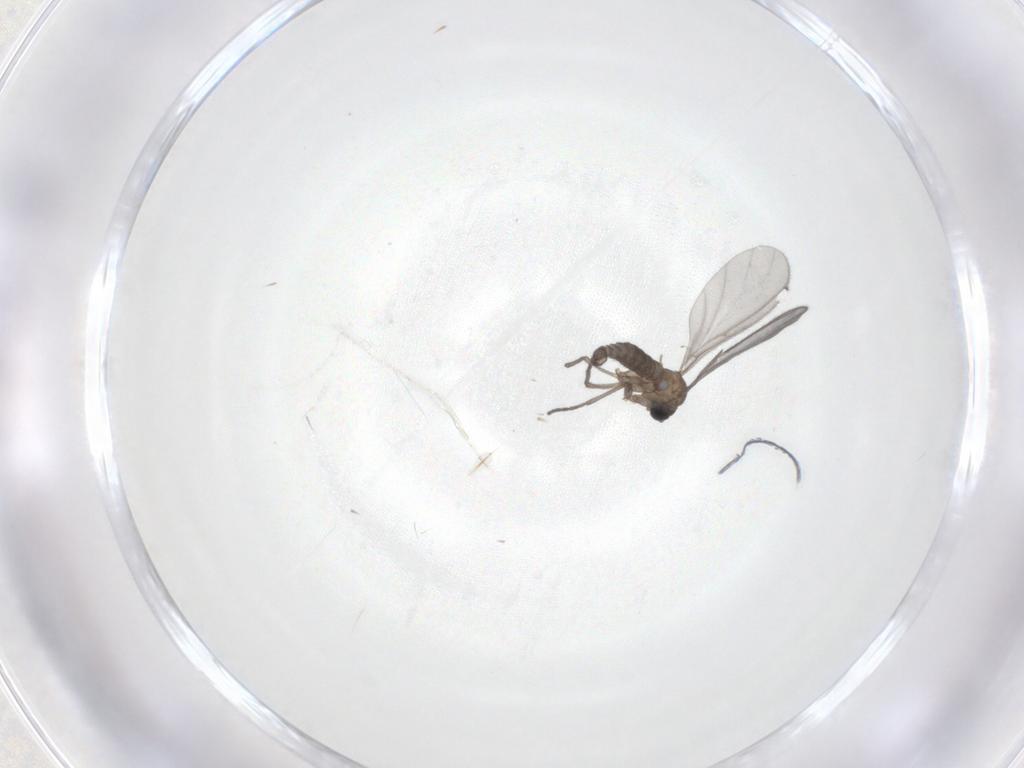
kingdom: Animalia
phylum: Arthropoda
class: Insecta
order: Diptera
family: Sciaridae
